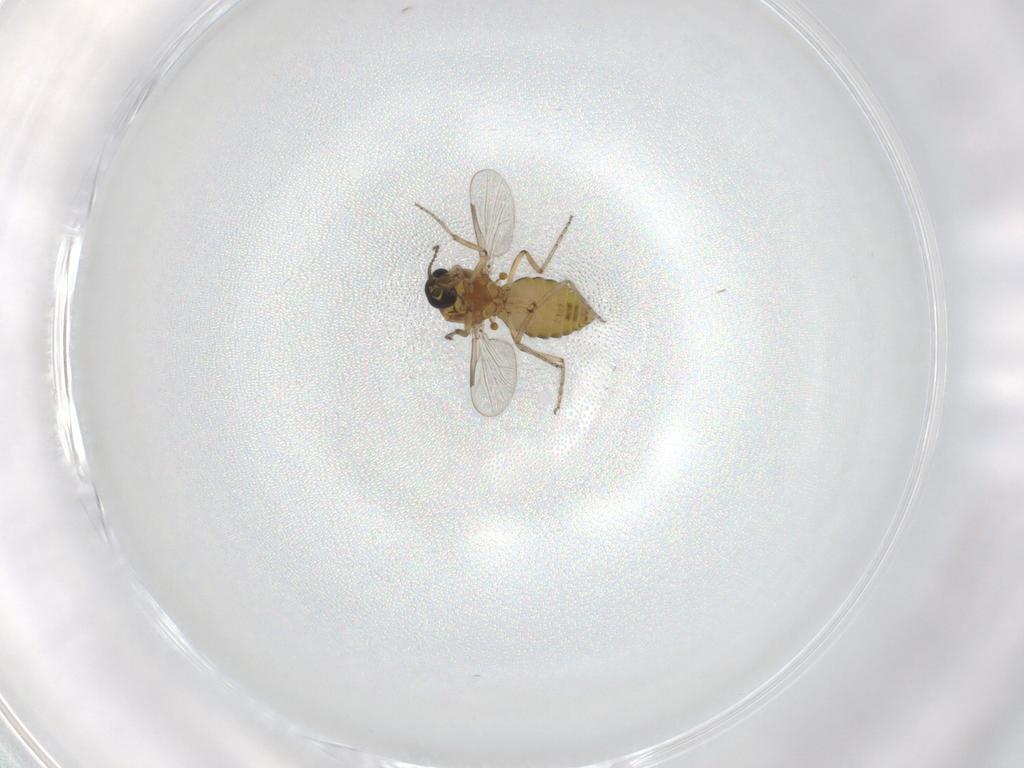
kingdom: Animalia
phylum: Arthropoda
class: Insecta
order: Diptera
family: Ceratopogonidae
